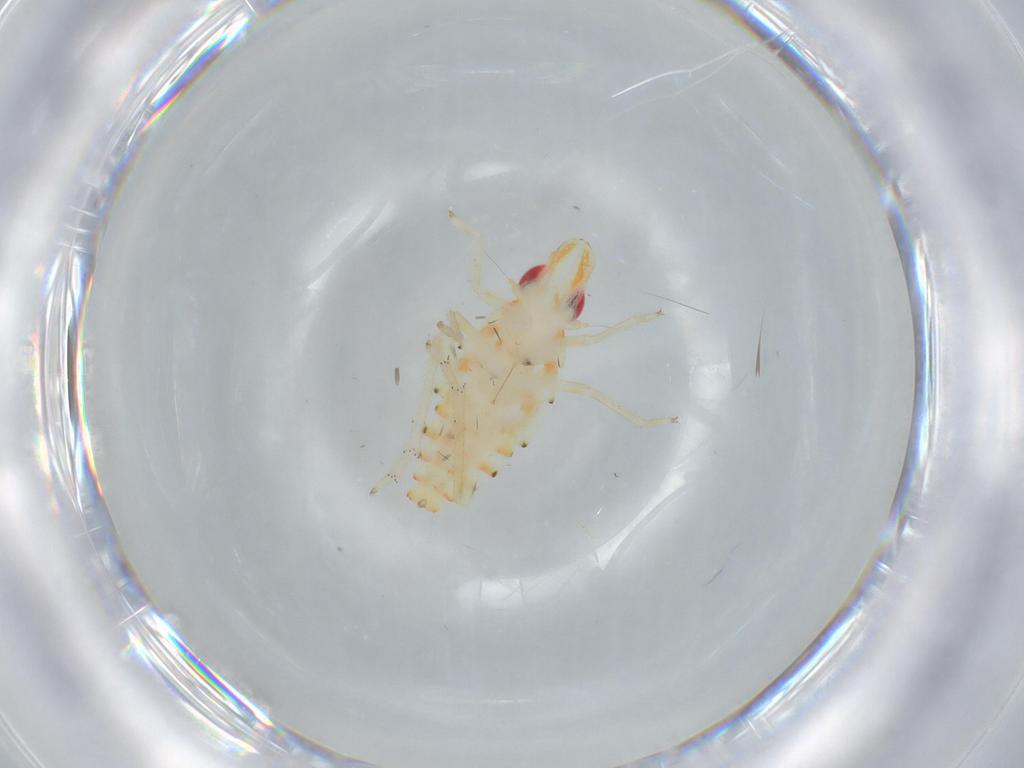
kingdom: Animalia
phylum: Arthropoda
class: Insecta
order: Hemiptera
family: Tropiduchidae
